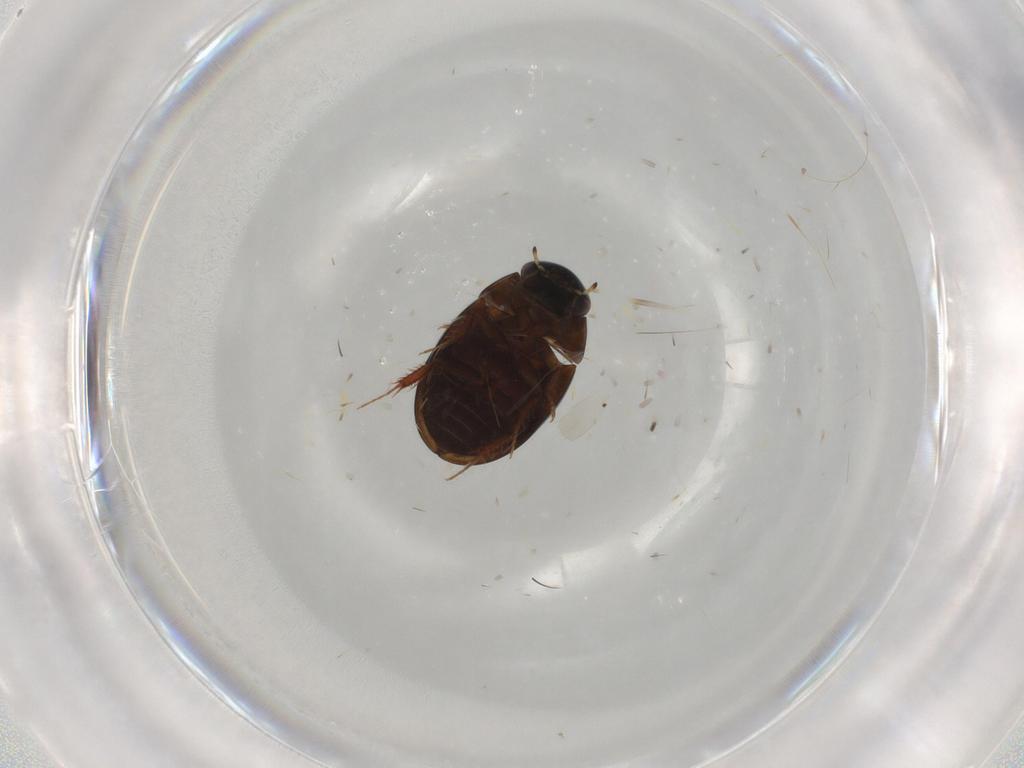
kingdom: Animalia
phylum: Arthropoda
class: Insecta
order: Coleoptera
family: Hydrophilidae
